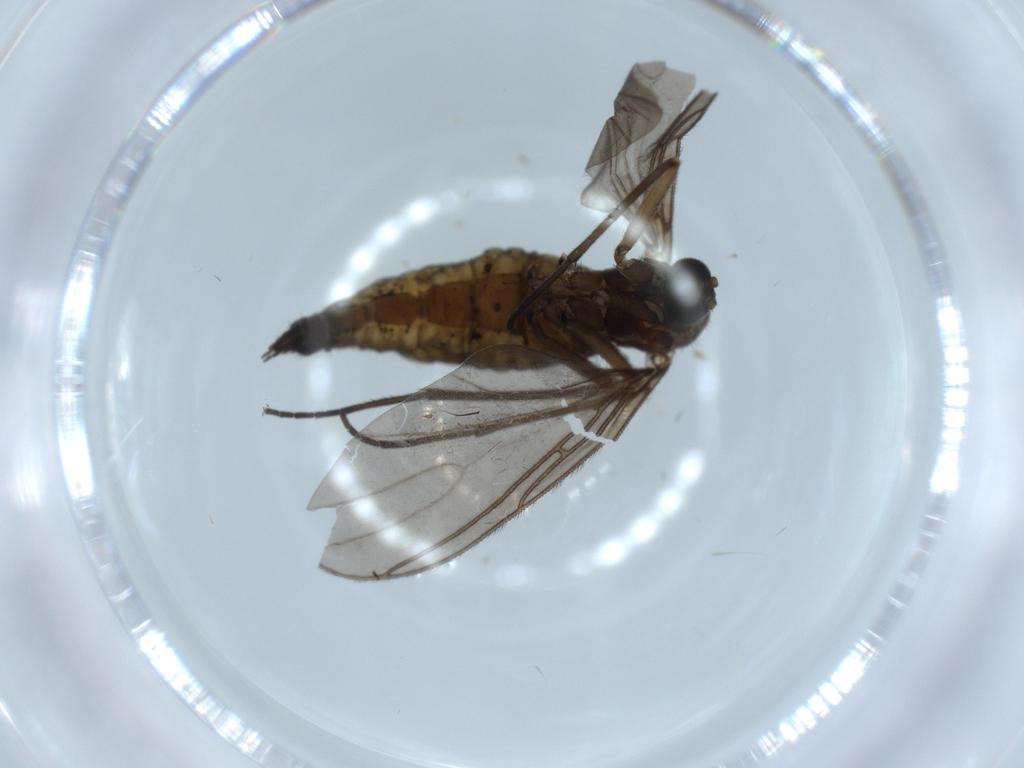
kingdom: Animalia
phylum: Arthropoda
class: Insecta
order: Diptera
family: Sciaridae
